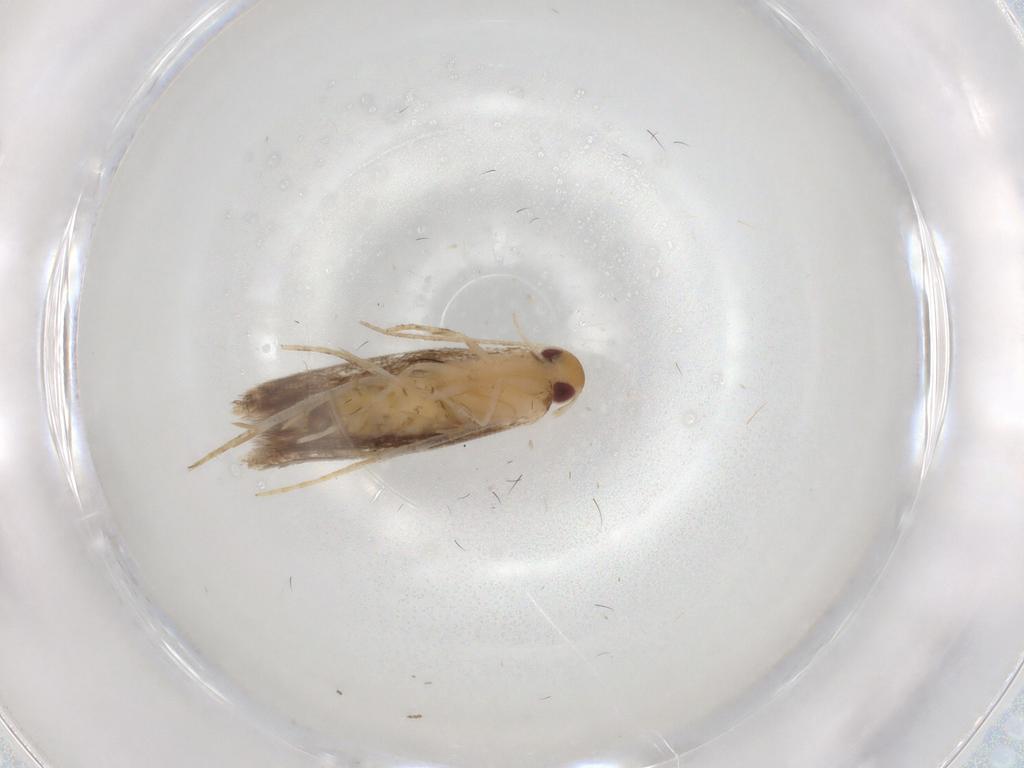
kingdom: Animalia
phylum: Arthropoda
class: Insecta
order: Lepidoptera
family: Momphidae
